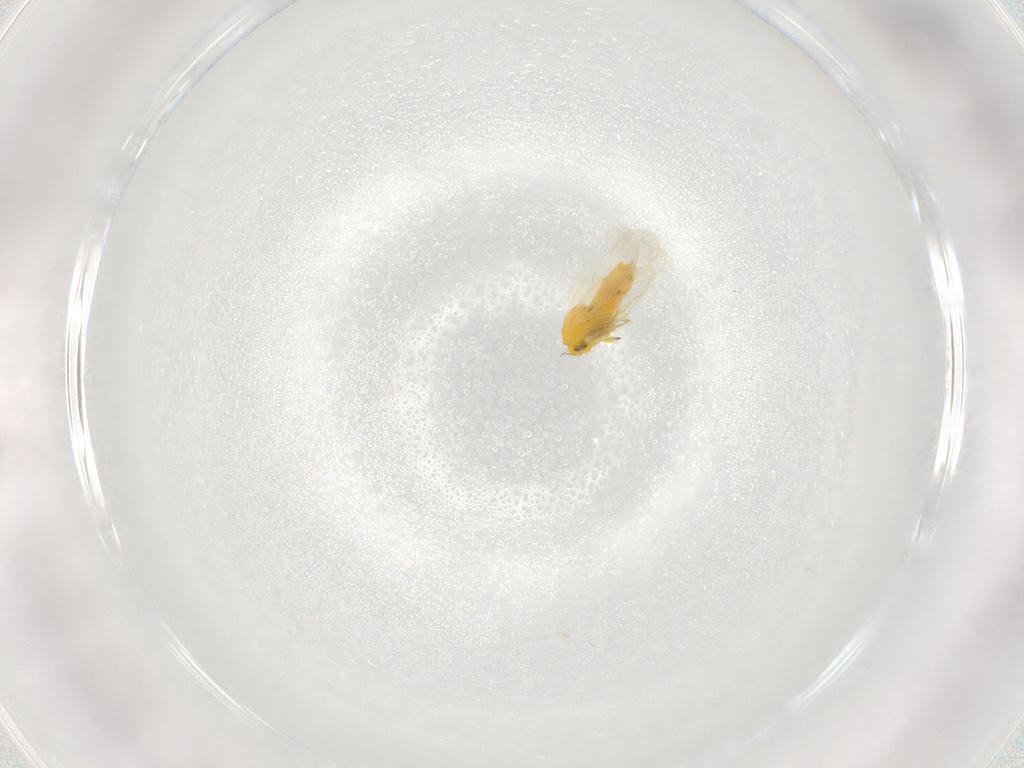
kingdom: Animalia
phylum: Arthropoda
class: Insecta
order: Hemiptera
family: Aleyrodidae
